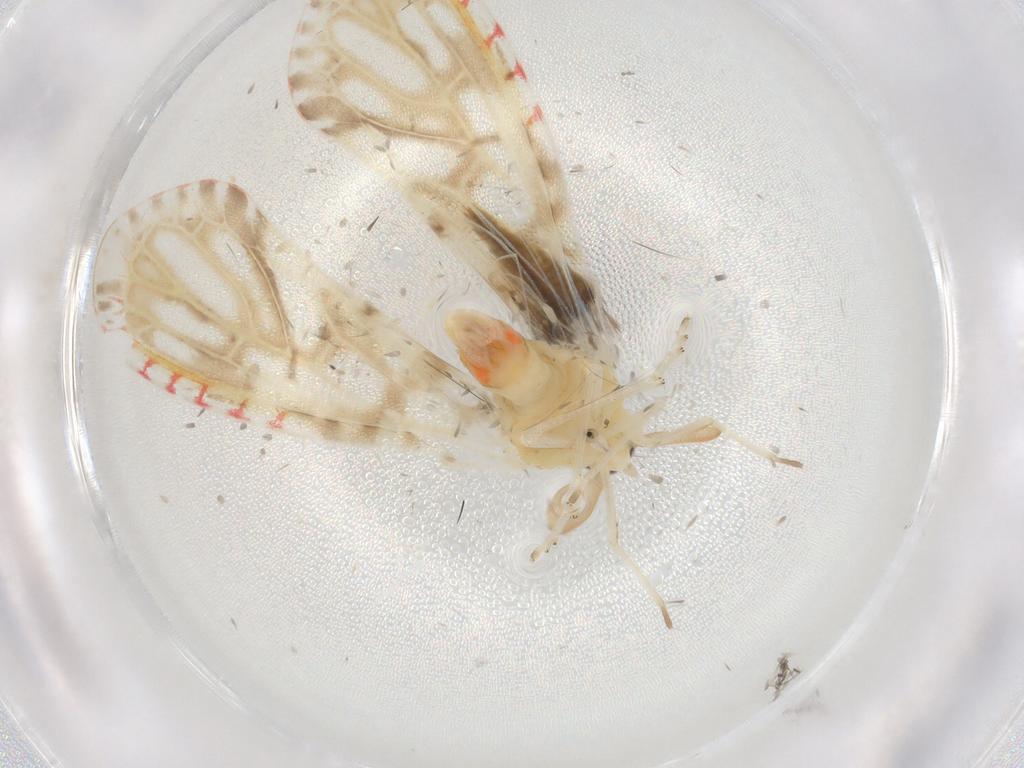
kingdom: Animalia
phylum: Arthropoda
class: Insecta
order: Hemiptera
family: Derbidae
